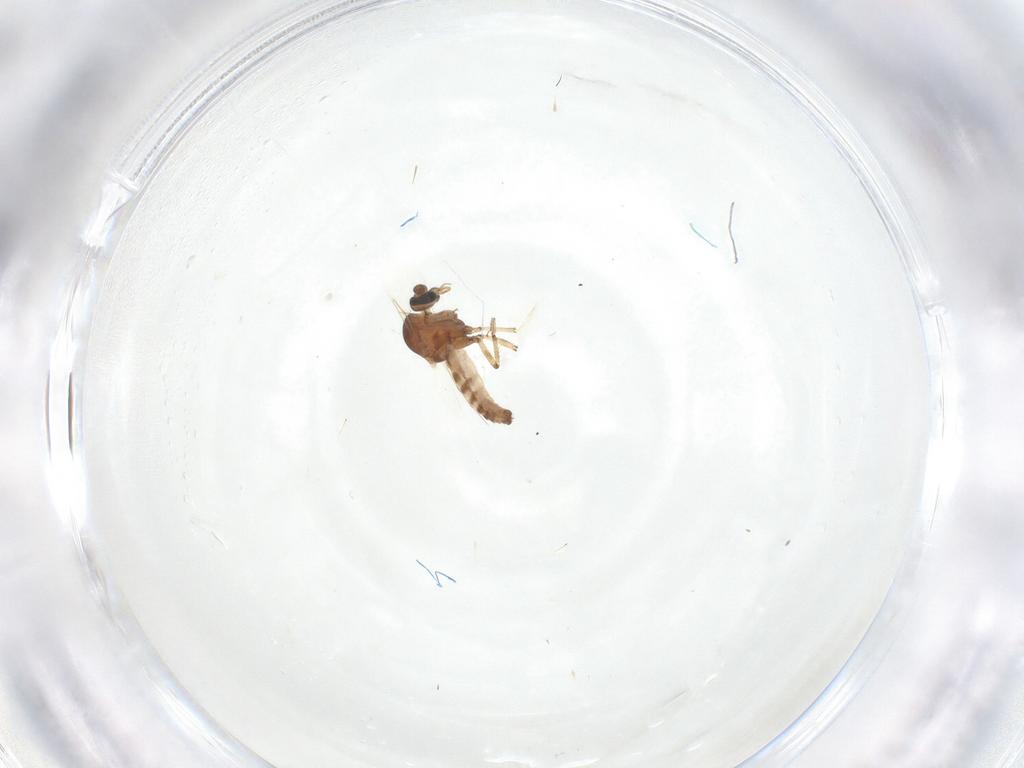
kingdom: Animalia
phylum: Arthropoda
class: Insecta
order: Diptera
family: Ceratopogonidae
